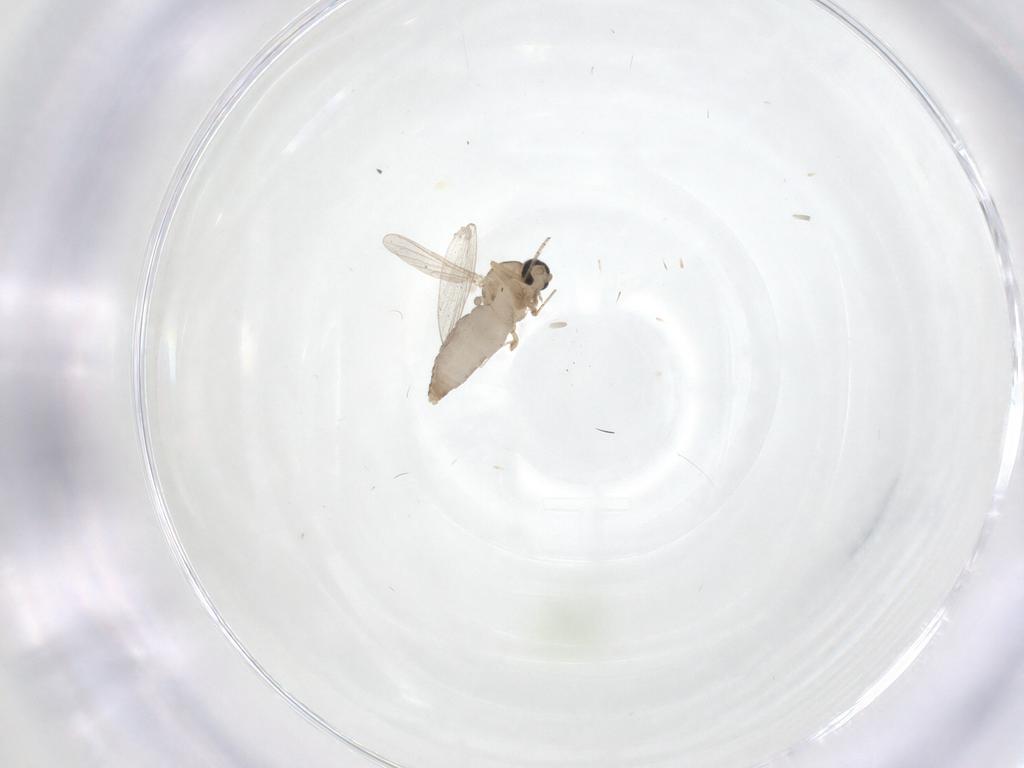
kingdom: Animalia
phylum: Arthropoda
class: Insecta
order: Diptera
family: Ceratopogonidae
